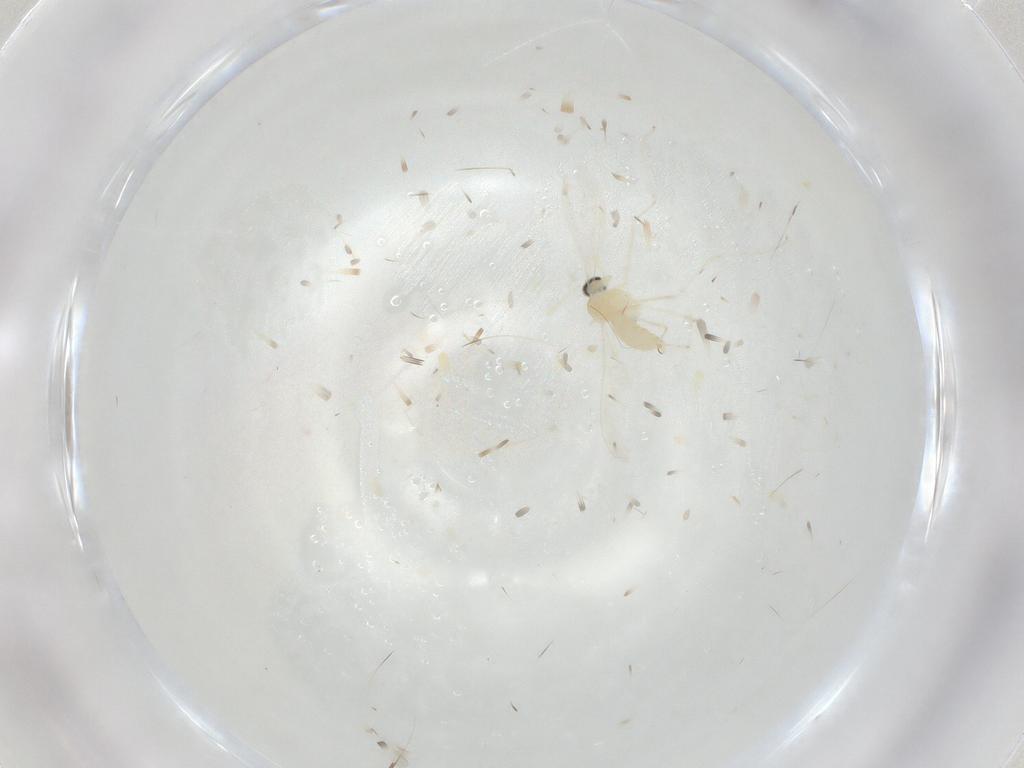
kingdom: Animalia
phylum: Arthropoda
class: Insecta
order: Diptera
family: Cecidomyiidae
